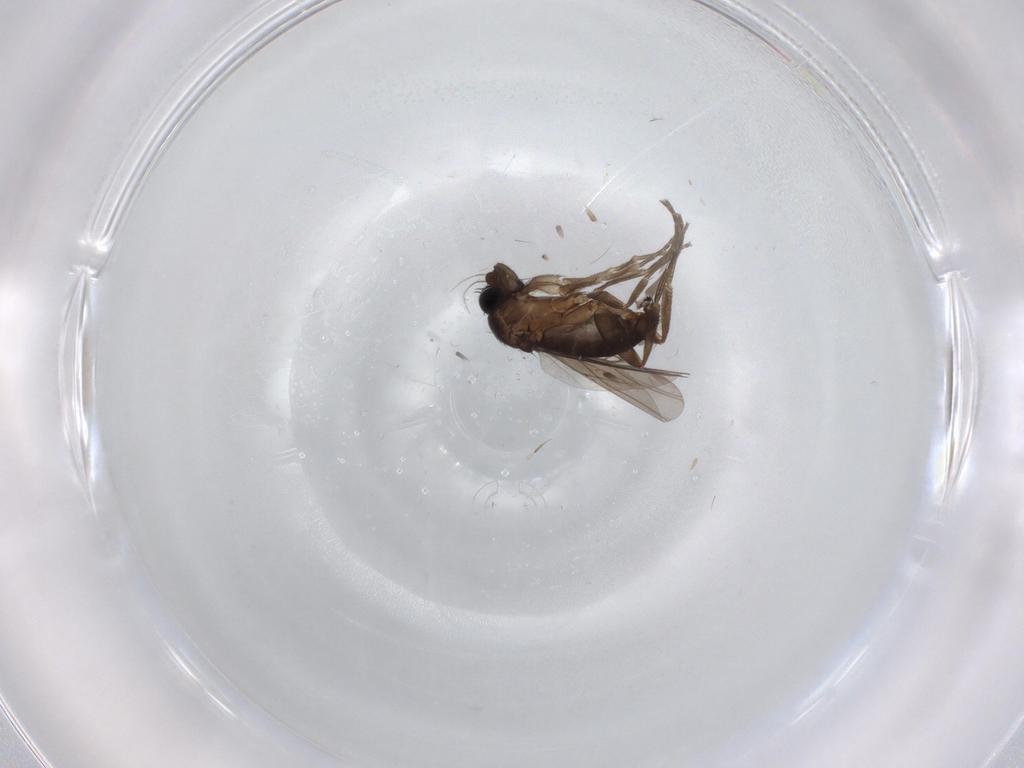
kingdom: Animalia
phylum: Arthropoda
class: Insecta
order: Diptera
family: Phoridae
